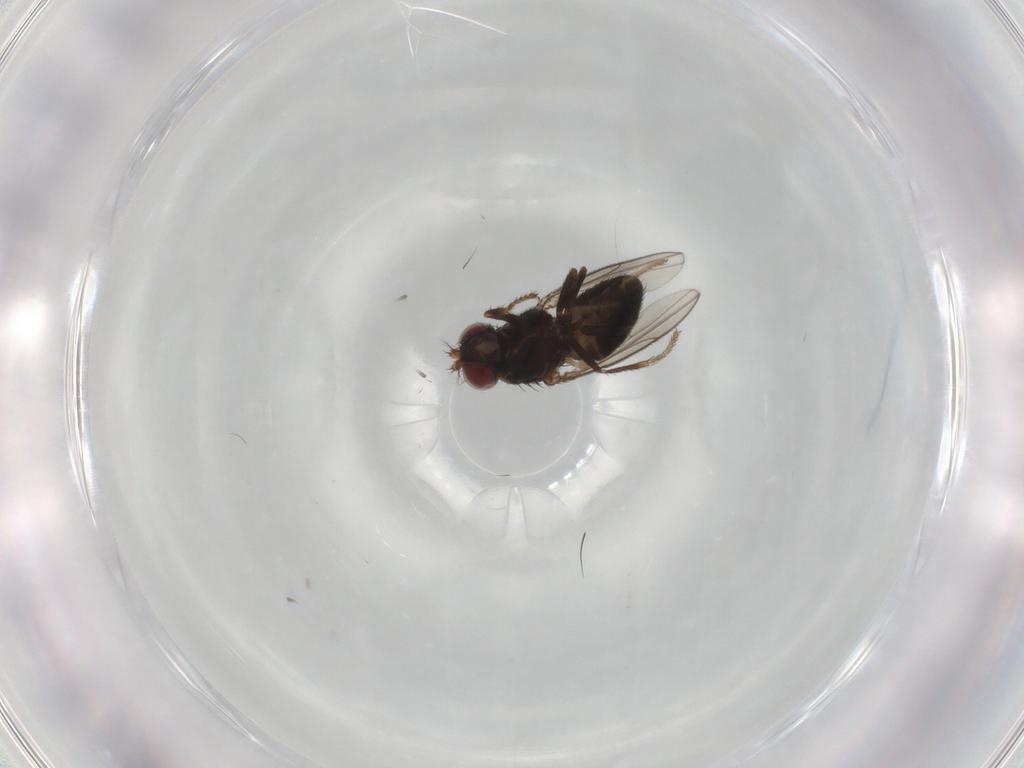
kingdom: Animalia
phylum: Arthropoda
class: Insecta
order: Diptera
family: Ephydridae
